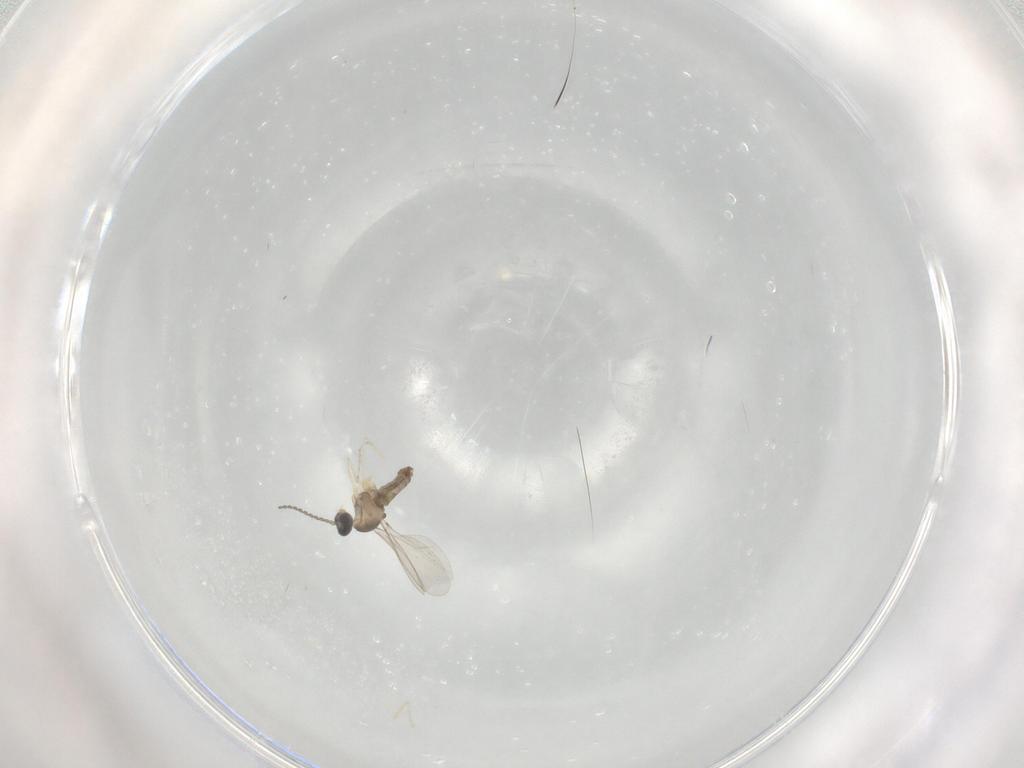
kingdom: Animalia
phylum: Arthropoda
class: Insecta
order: Diptera
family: Cecidomyiidae
